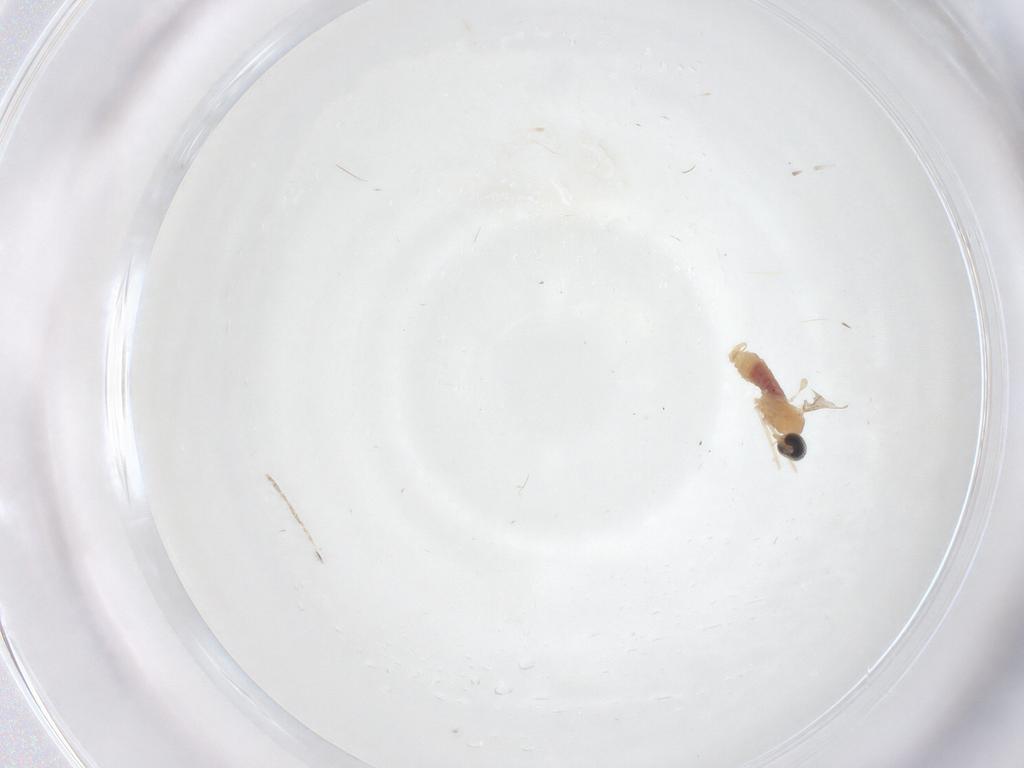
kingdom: Animalia
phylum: Arthropoda
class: Insecta
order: Diptera
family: Cecidomyiidae
